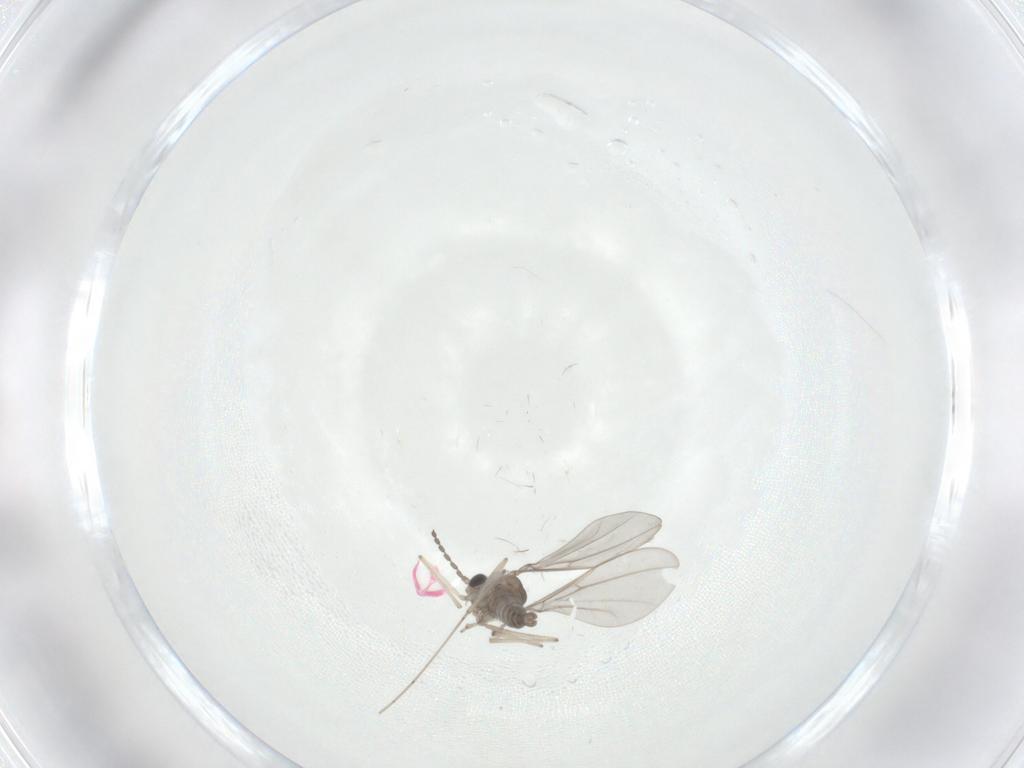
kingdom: Animalia
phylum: Arthropoda
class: Insecta
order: Diptera
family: Cecidomyiidae
